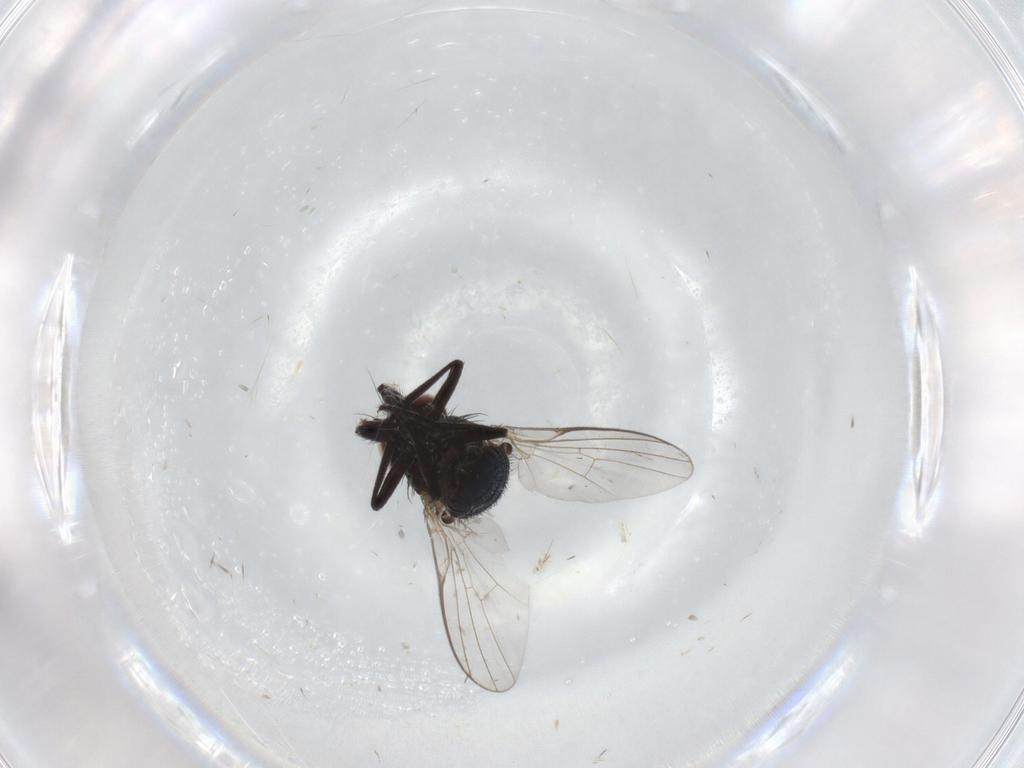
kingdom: Animalia
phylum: Arthropoda
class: Insecta
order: Diptera
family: Agromyzidae
